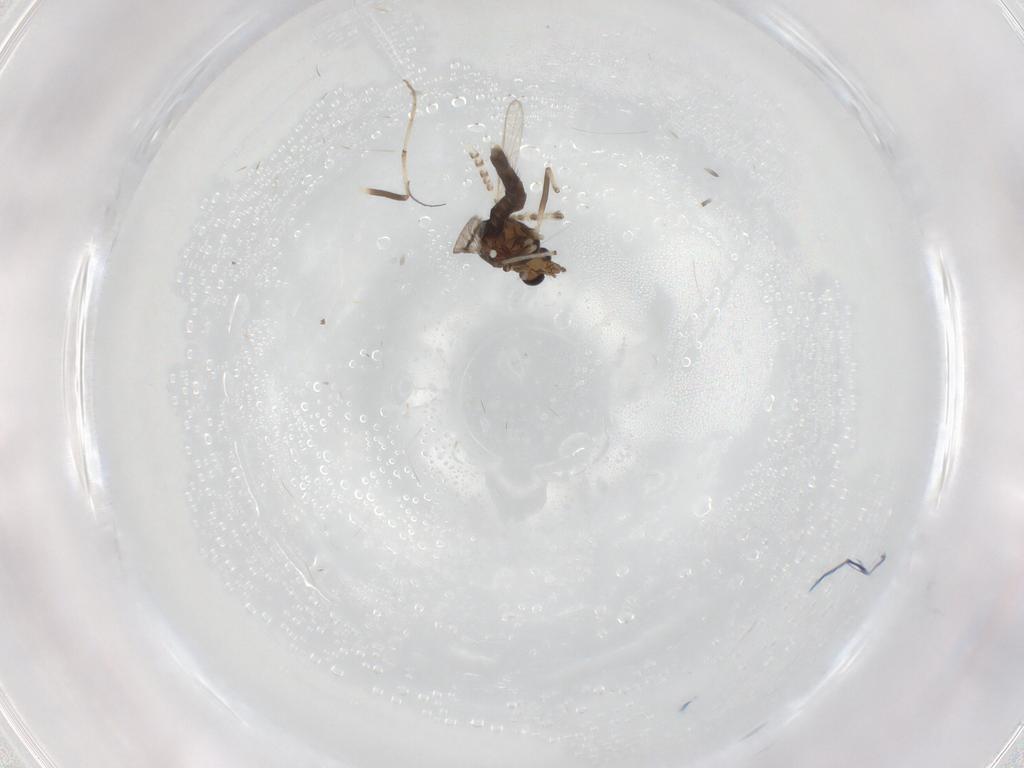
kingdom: Animalia
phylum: Arthropoda
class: Insecta
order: Diptera
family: Chironomidae
